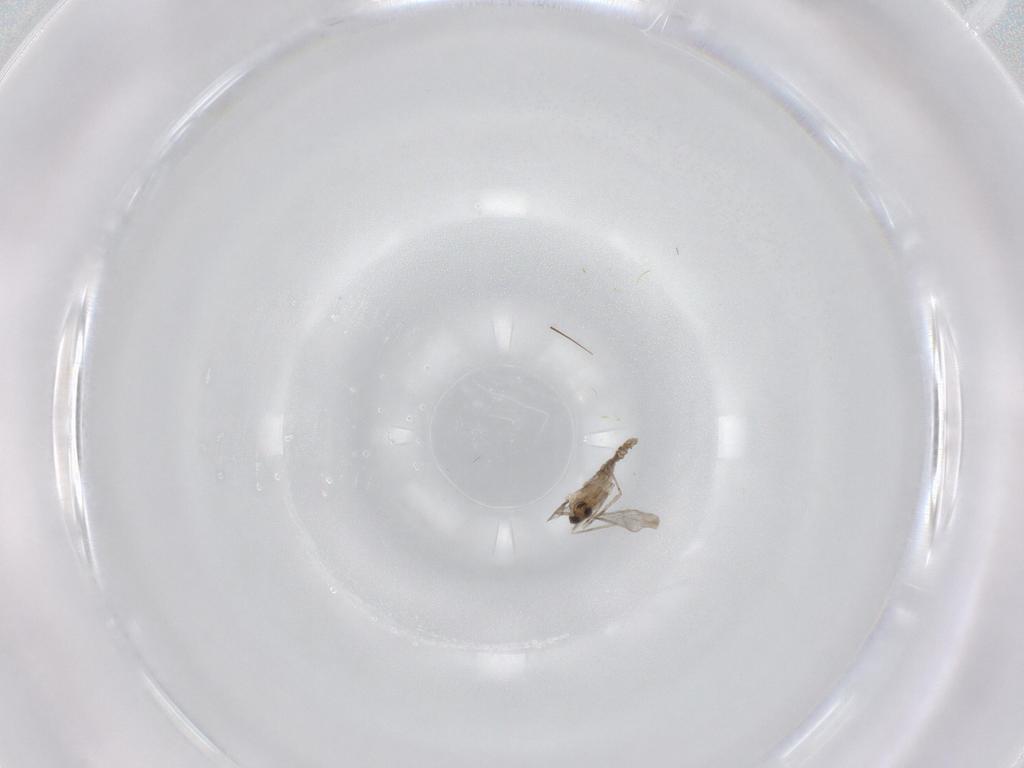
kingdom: Animalia
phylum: Arthropoda
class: Insecta
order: Diptera
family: Cecidomyiidae
